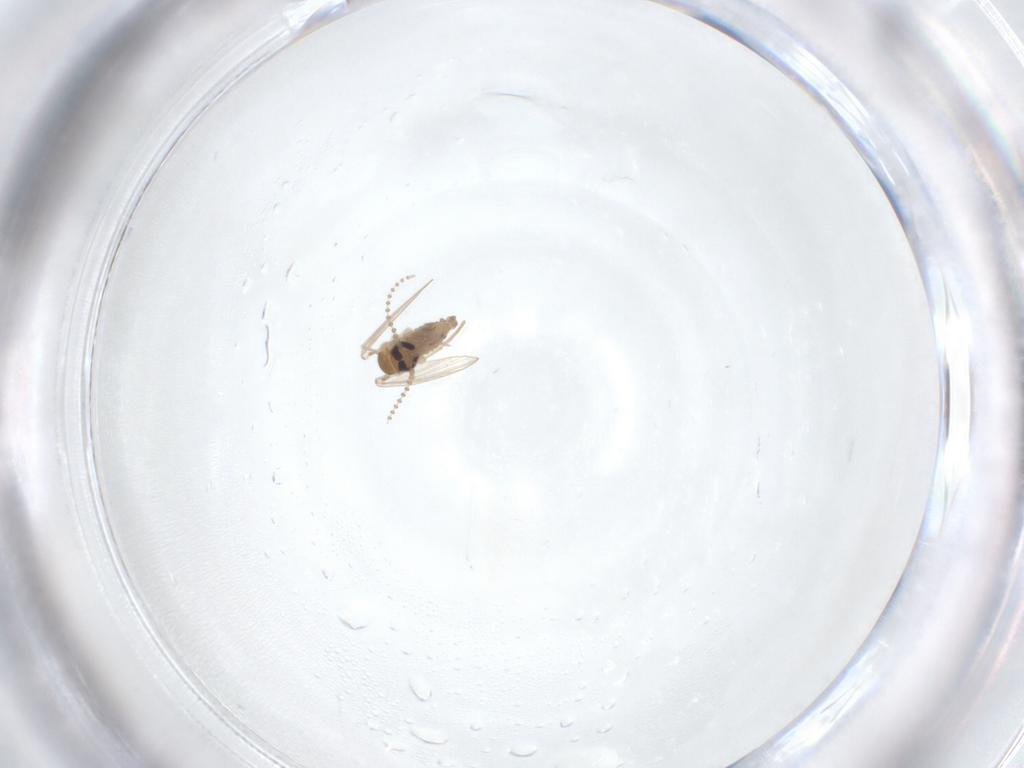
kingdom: Animalia
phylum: Arthropoda
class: Insecta
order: Diptera
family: Psychodidae
